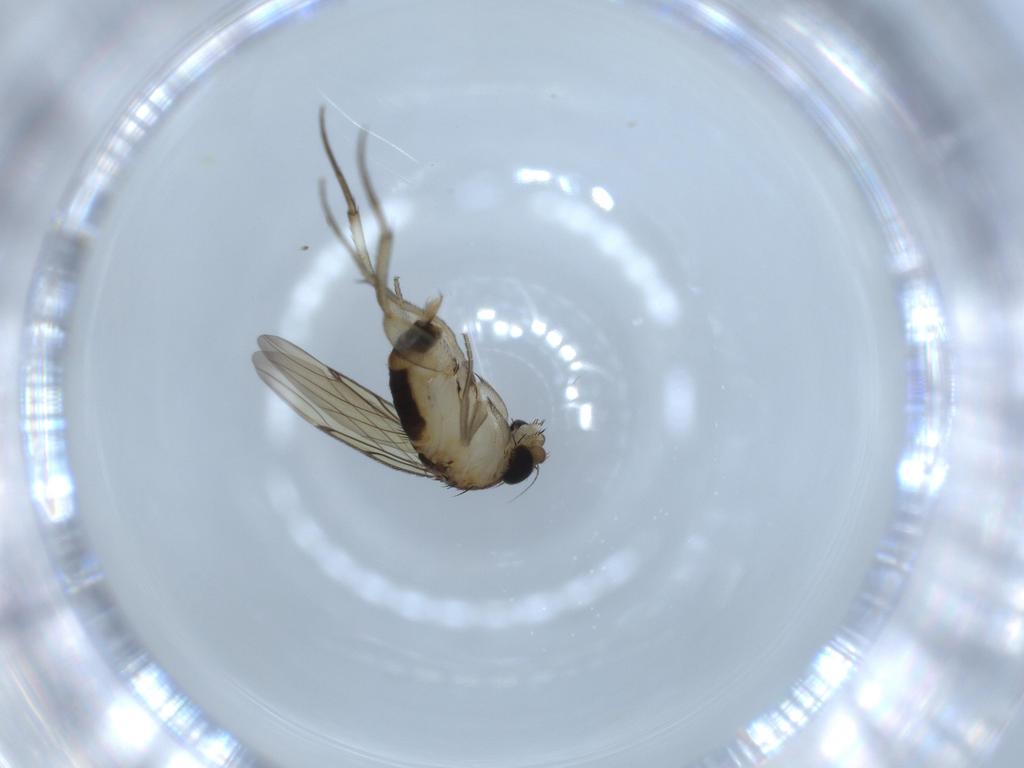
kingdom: Animalia
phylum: Arthropoda
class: Insecta
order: Diptera
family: Phoridae
